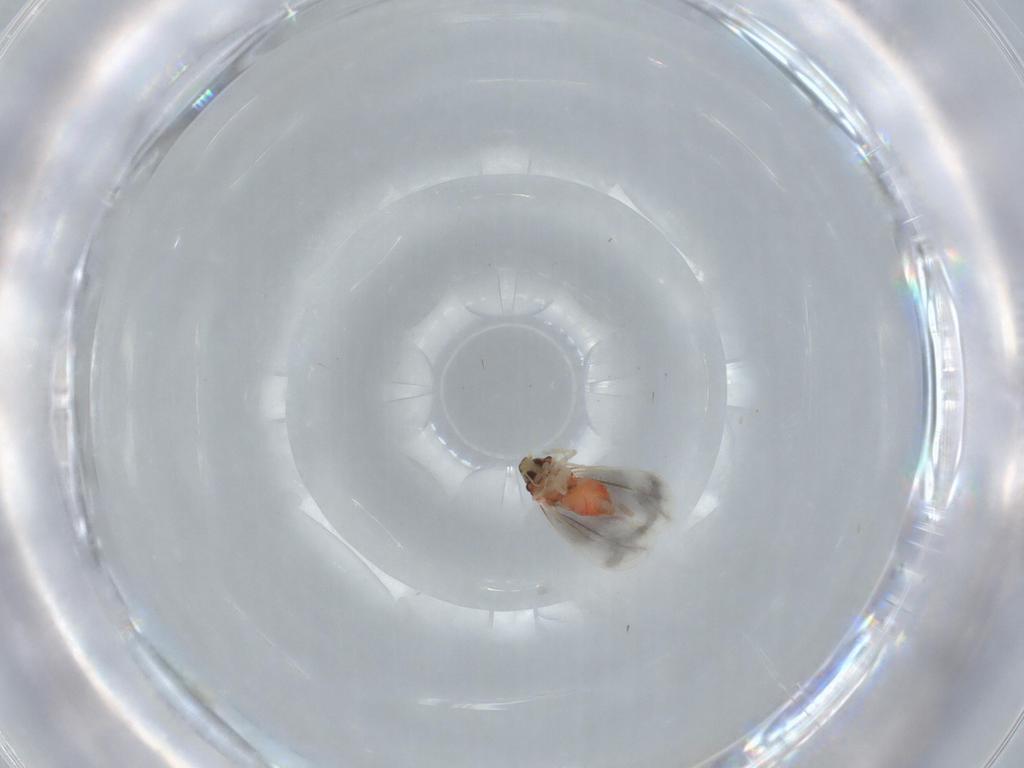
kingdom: Animalia
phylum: Arthropoda
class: Insecta
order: Hemiptera
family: Aleyrodidae
